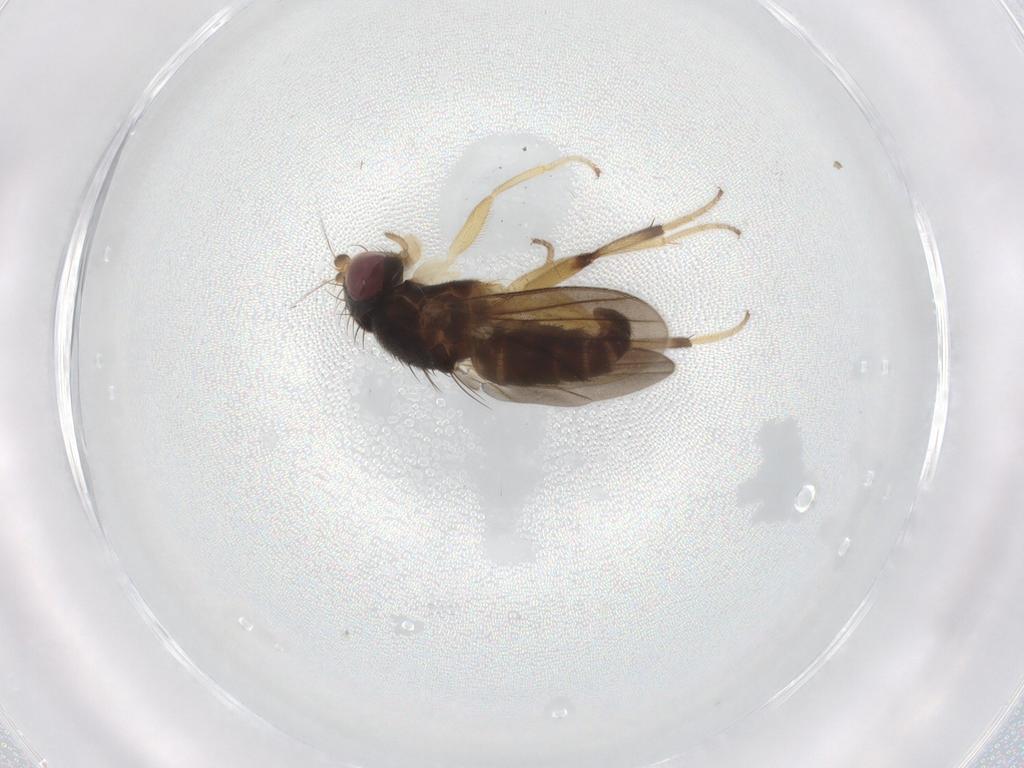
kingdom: Animalia
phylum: Arthropoda
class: Insecta
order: Diptera
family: Clusiidae
